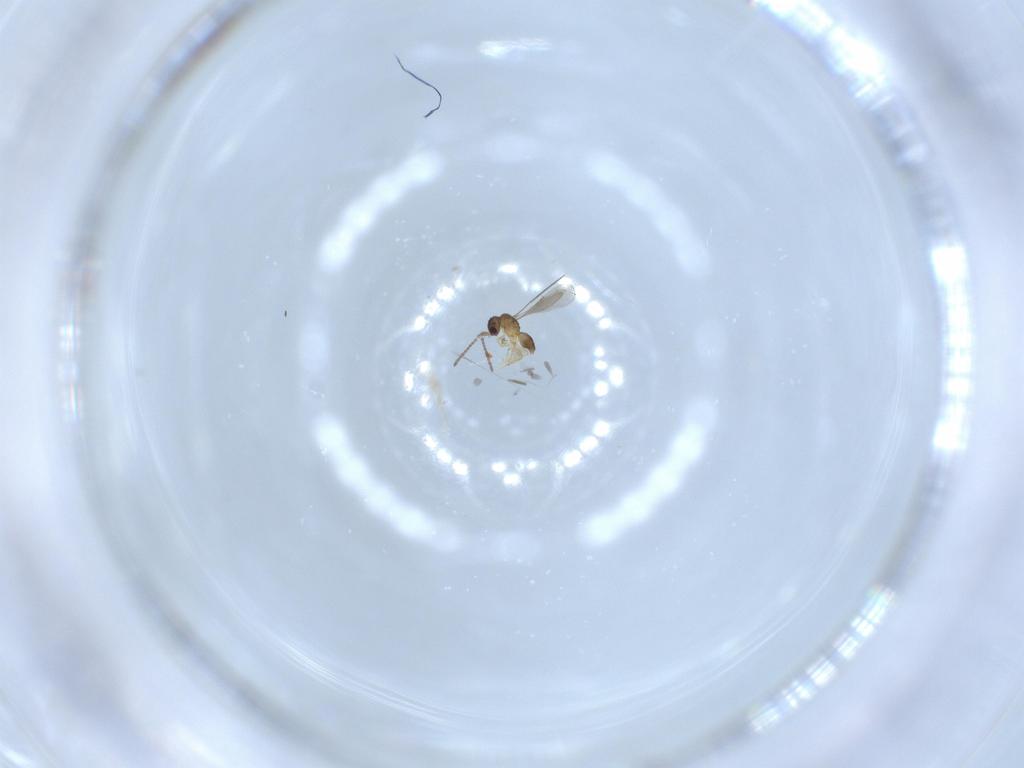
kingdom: Animalia
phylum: Arthropoda
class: Insecta
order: Hymenoptera
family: Ceraphronidae
